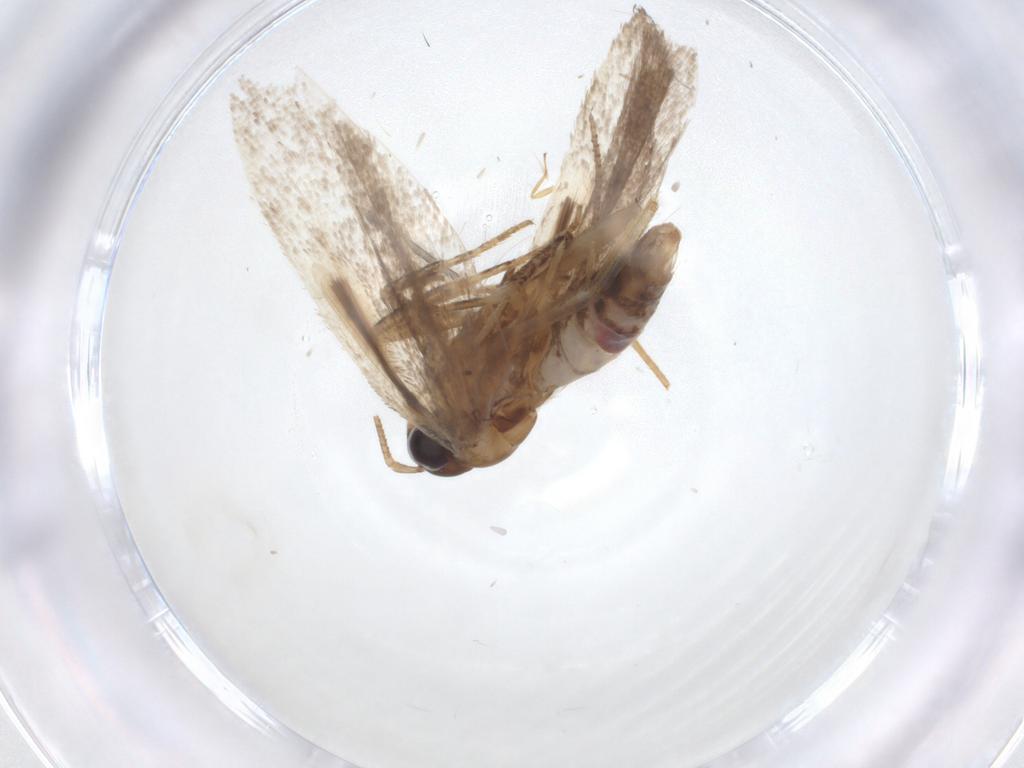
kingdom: Animalia
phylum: Arthropoda
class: Insecta
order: Lepidoptera
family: Gelechiidae
